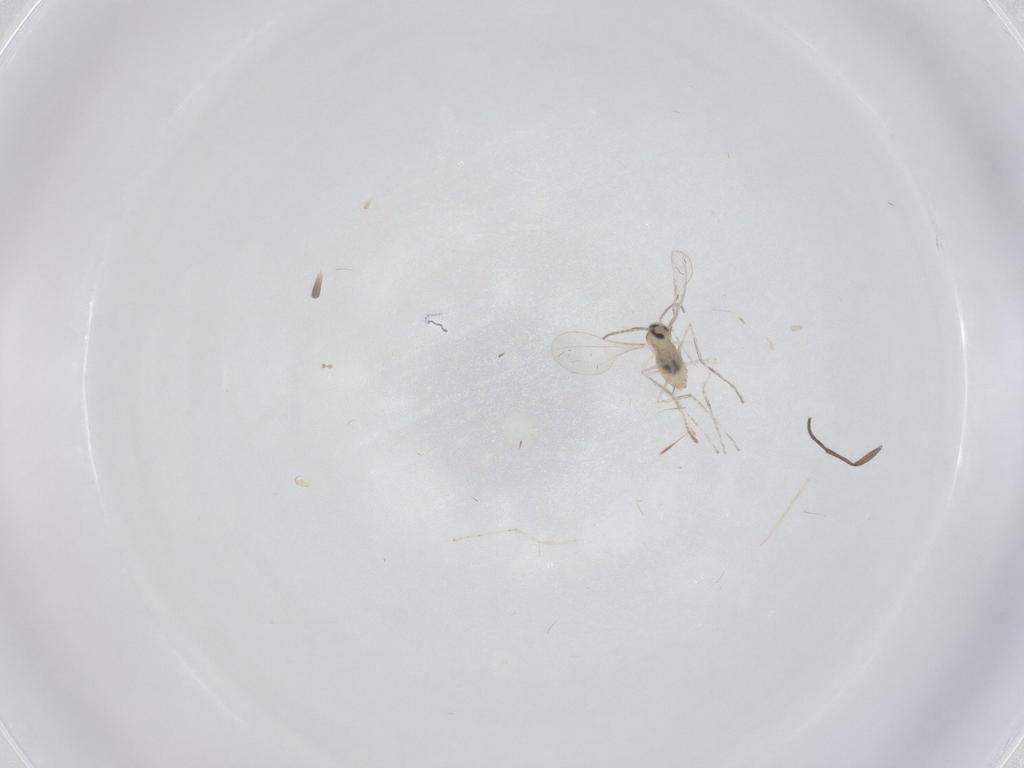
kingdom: Animalia
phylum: Arthropoda
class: Insecta
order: Diptera
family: Cecidomyiidae
